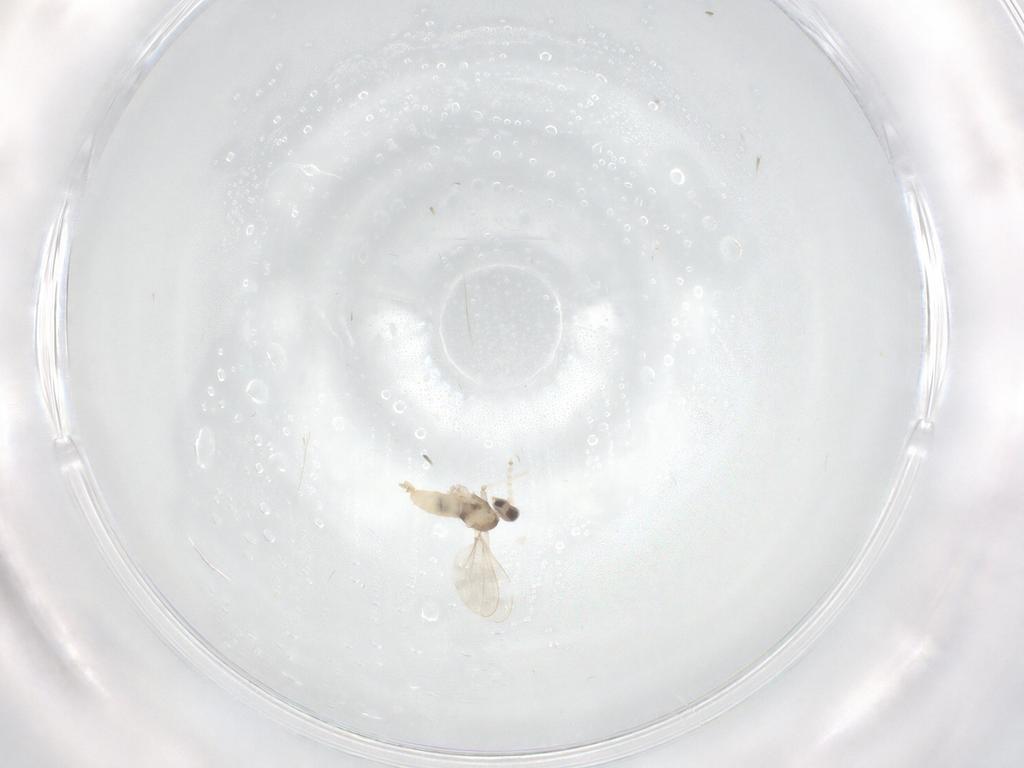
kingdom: Animalia
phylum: Arthropoda
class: Insecta
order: Diptera
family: Cecidomyiidae
